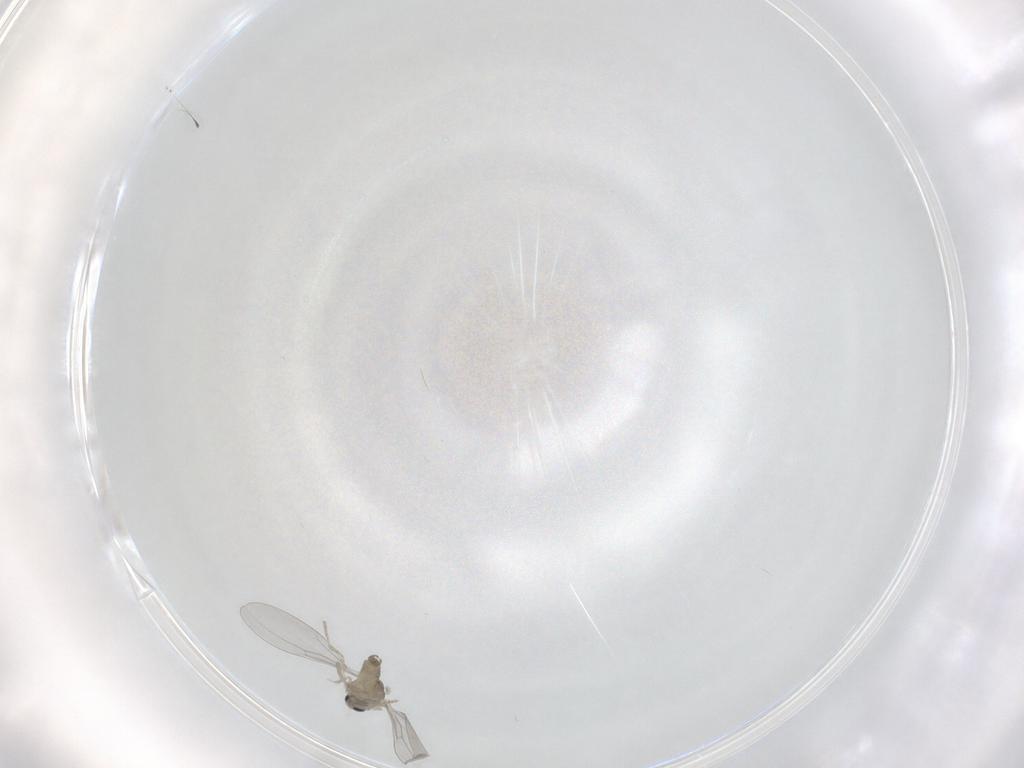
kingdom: Animalia
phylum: Arthropoda
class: Insecta
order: Diptera
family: Cecidomyiidae
